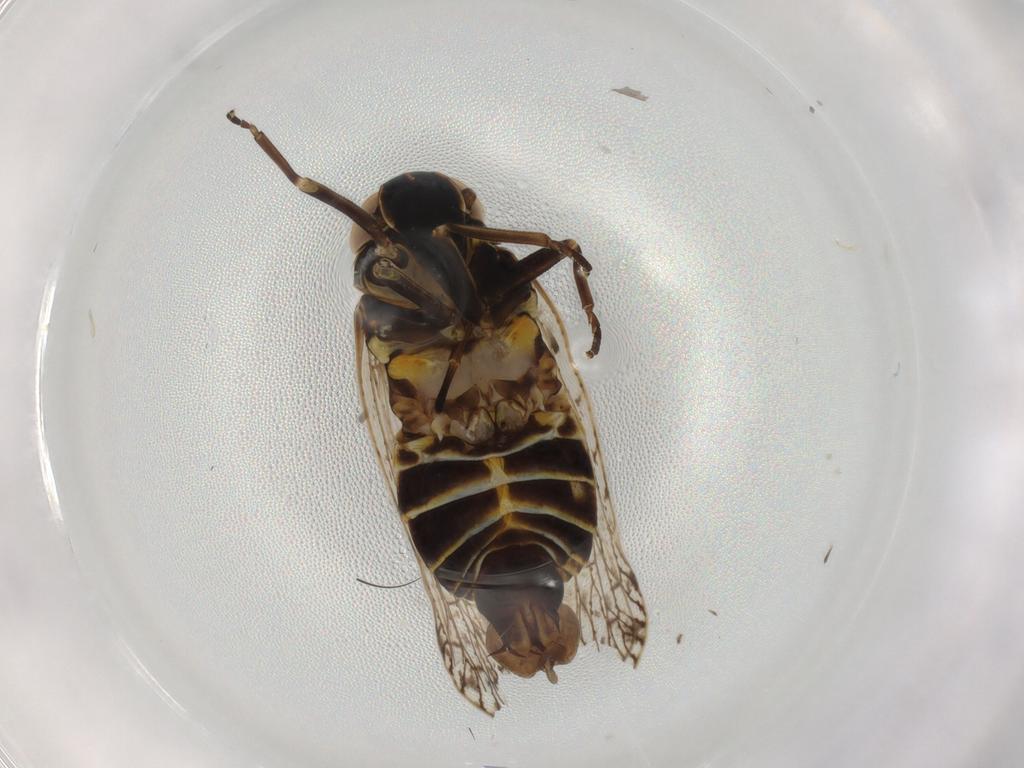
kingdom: Animalia
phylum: Arthropoda
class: Insecta
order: Hemiptera
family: Cixiidae
